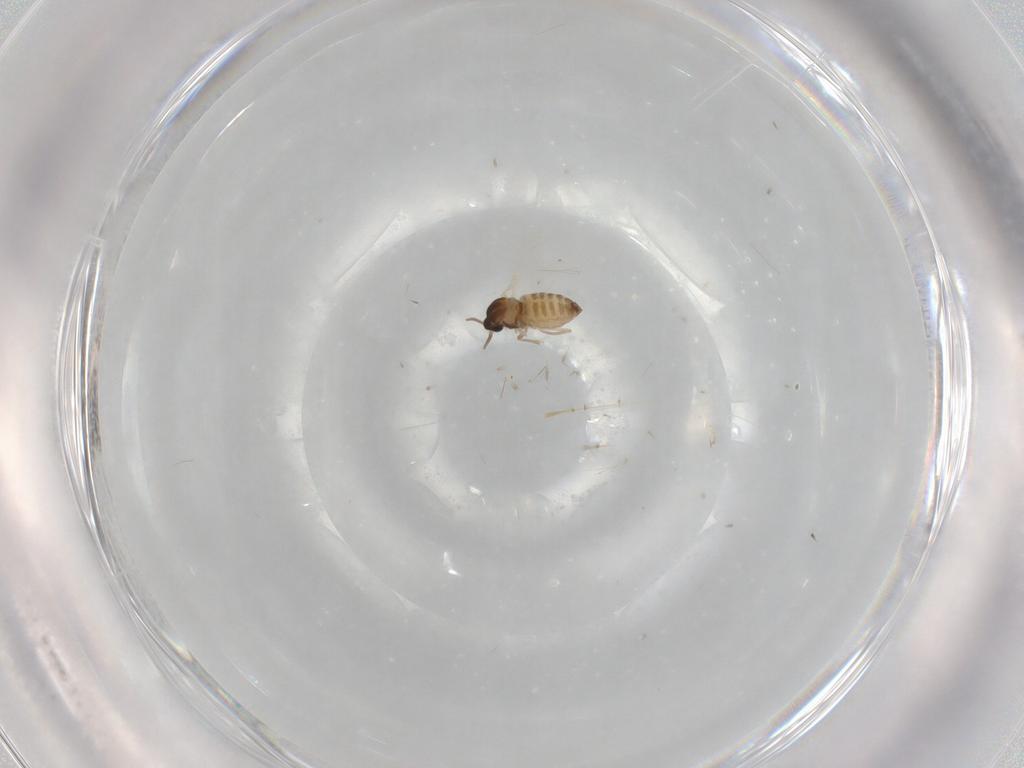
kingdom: Animalia
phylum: Arthropoda
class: Insecta
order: Diptera
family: Cecidomyiidae
